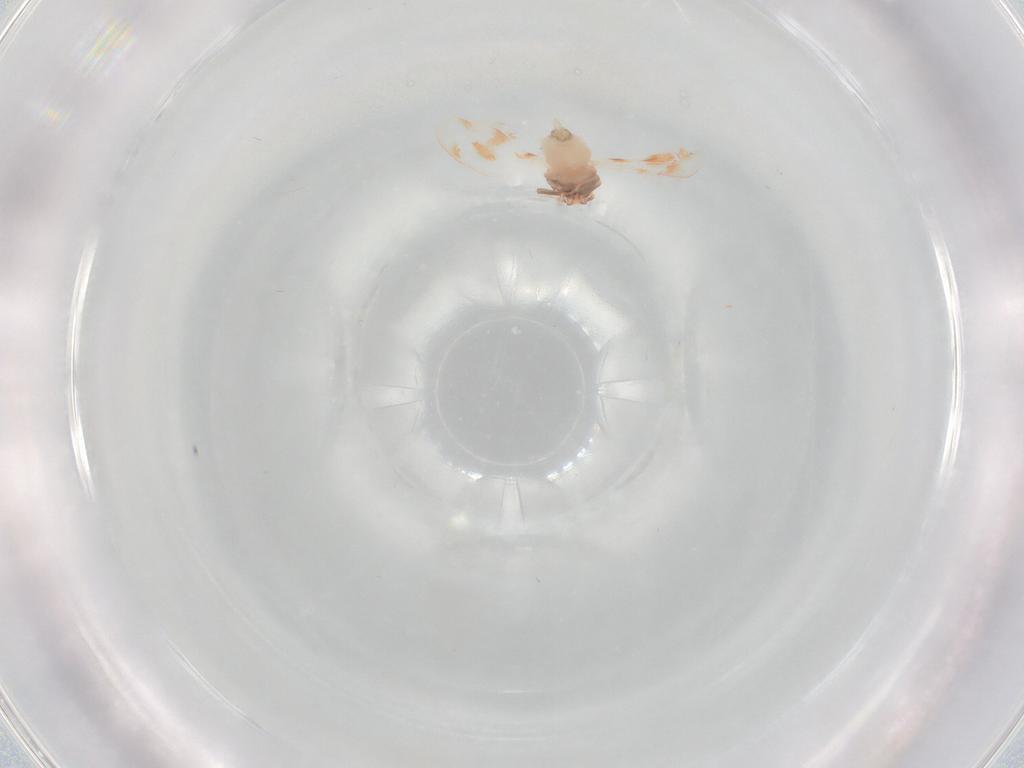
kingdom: Animalia
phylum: Arthropoda
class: Insecta
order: Hemiptera
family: Aleyrodidae
